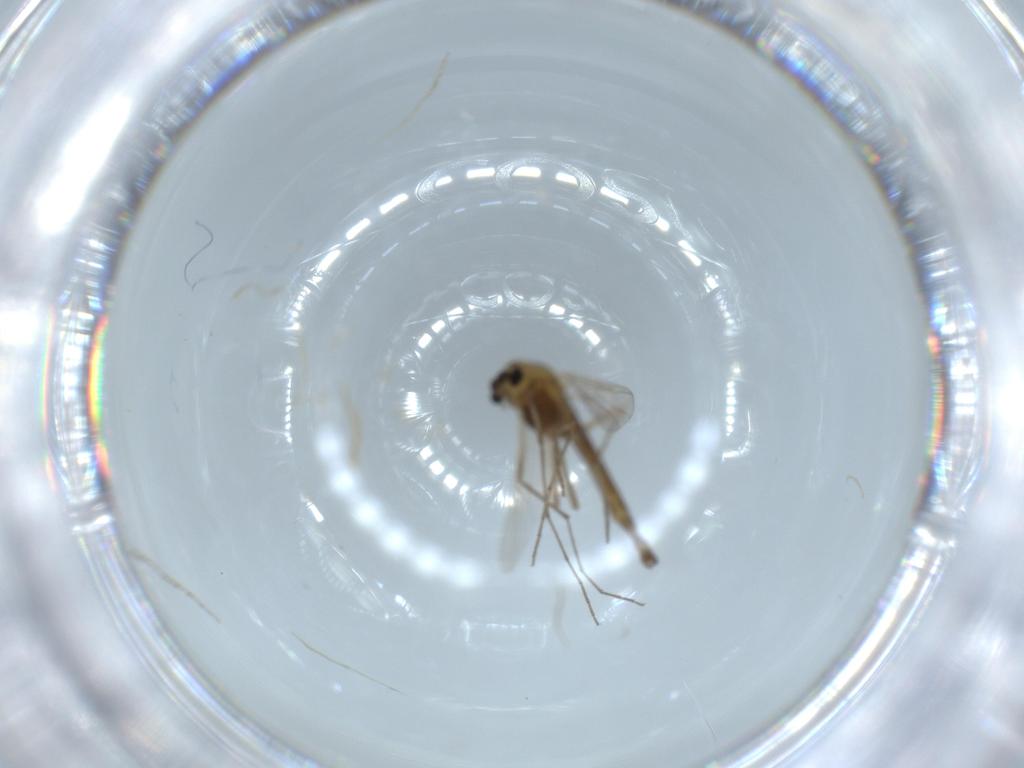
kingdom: Animalia
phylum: Arthropoda
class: Insecta
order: Diptera
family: Chironomidae
